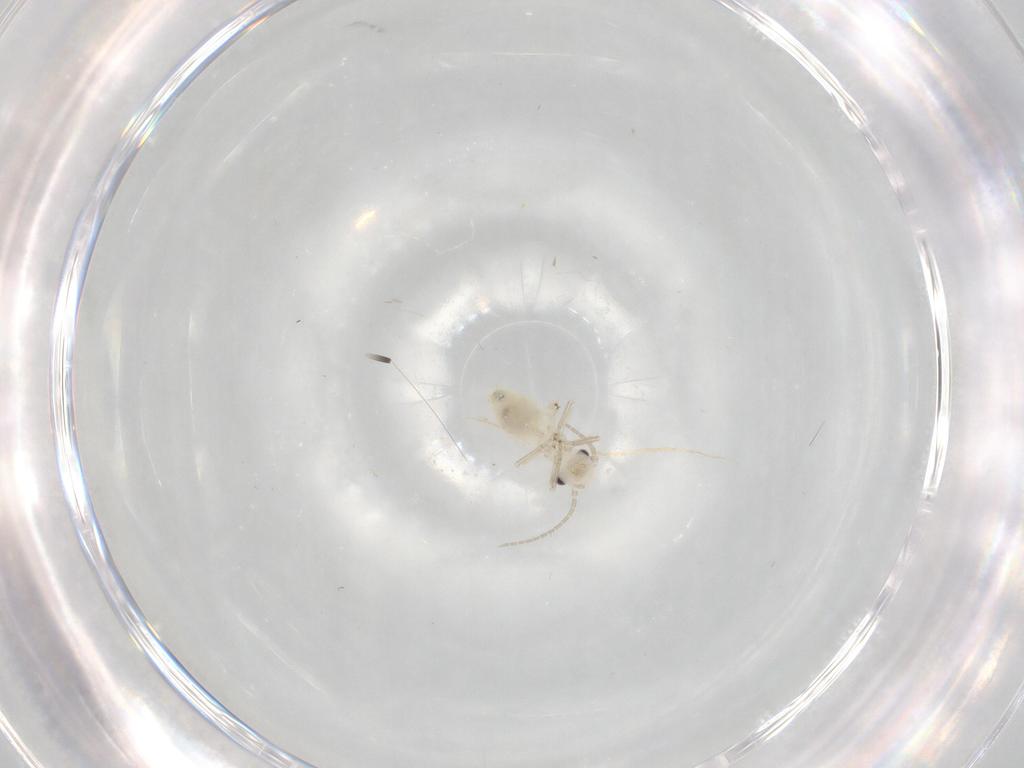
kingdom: Animalia
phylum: Arthropoda
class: Insecta
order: Psocodea
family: Caeciliusidae
